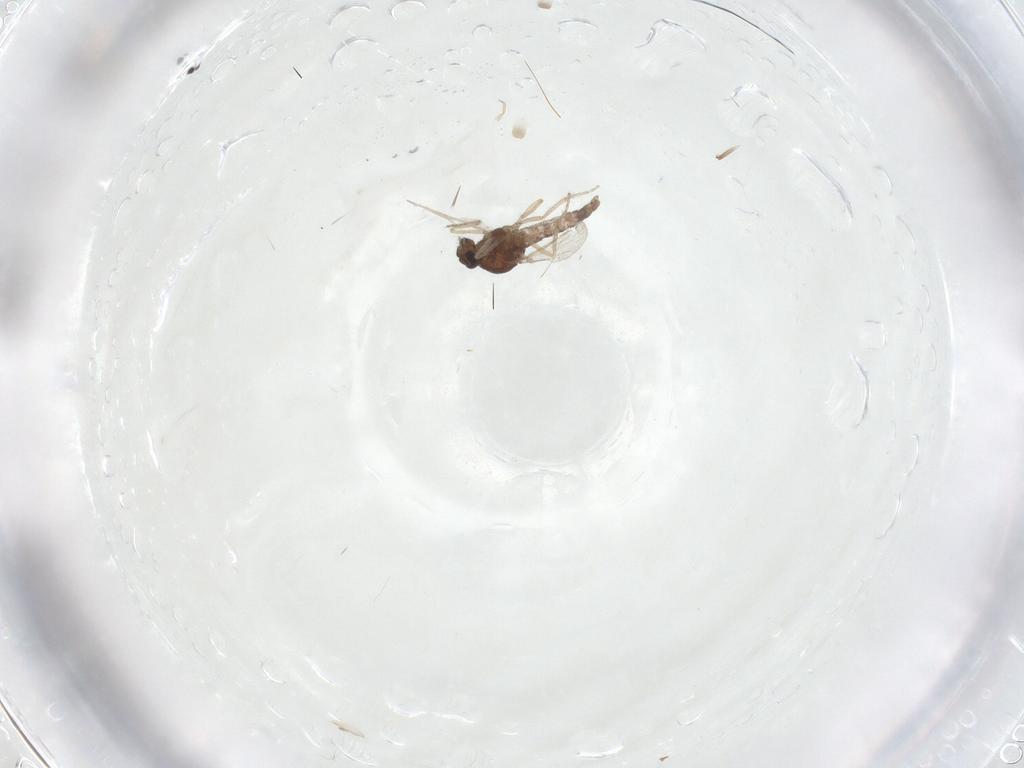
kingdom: Animalia
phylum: Arthropoda
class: Insecta
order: Diptera
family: Ceratopogonidae
